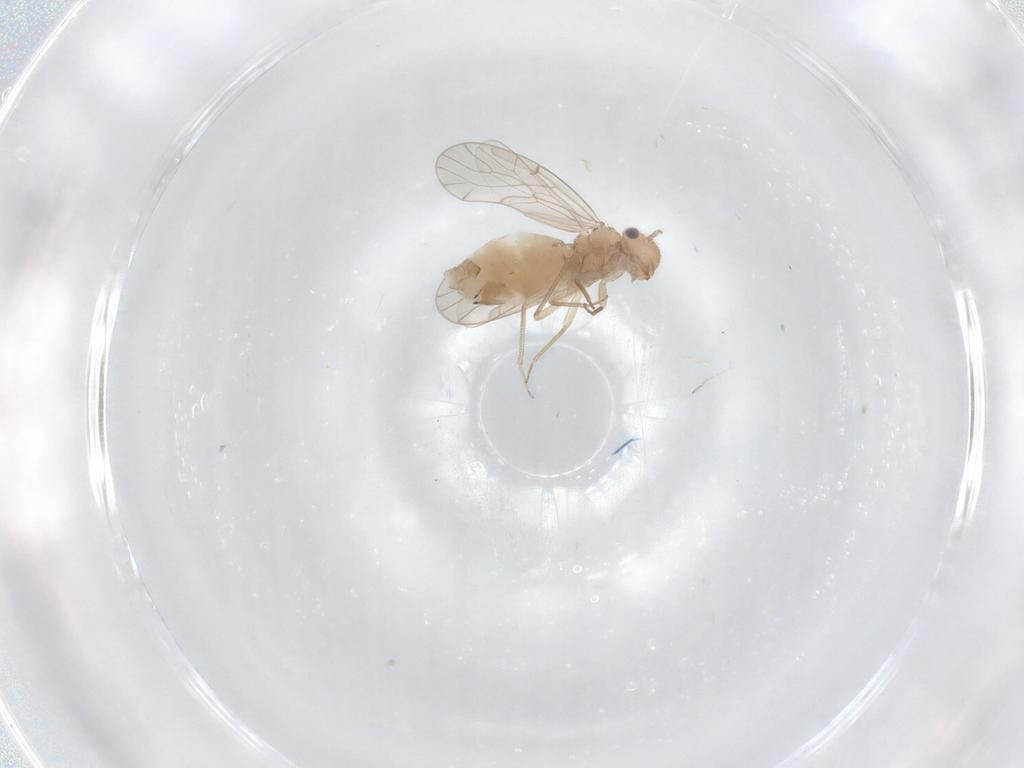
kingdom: Animalia
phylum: Arthropoda
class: Insecta
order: Psocodea
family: Ectopsocidae
